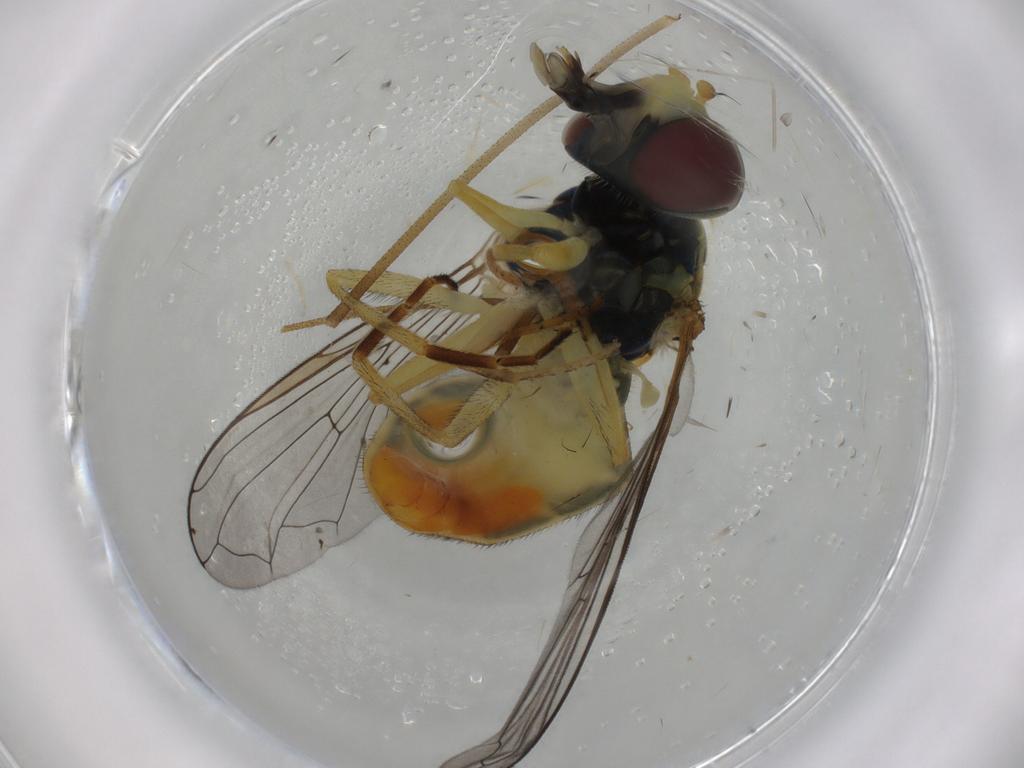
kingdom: Animalia
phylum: Arthropoda
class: Insecta
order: Diptera
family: Syrphidae
